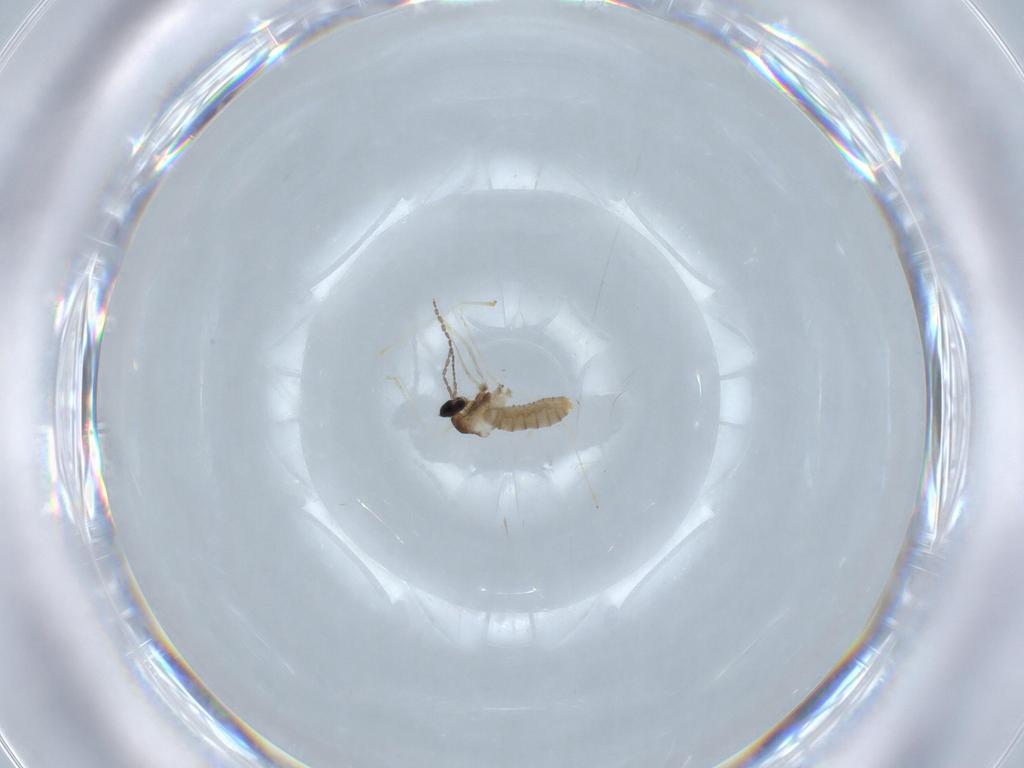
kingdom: Animalia
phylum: Arthropoda
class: Insecta
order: Diptera
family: Cecidomyiidae
